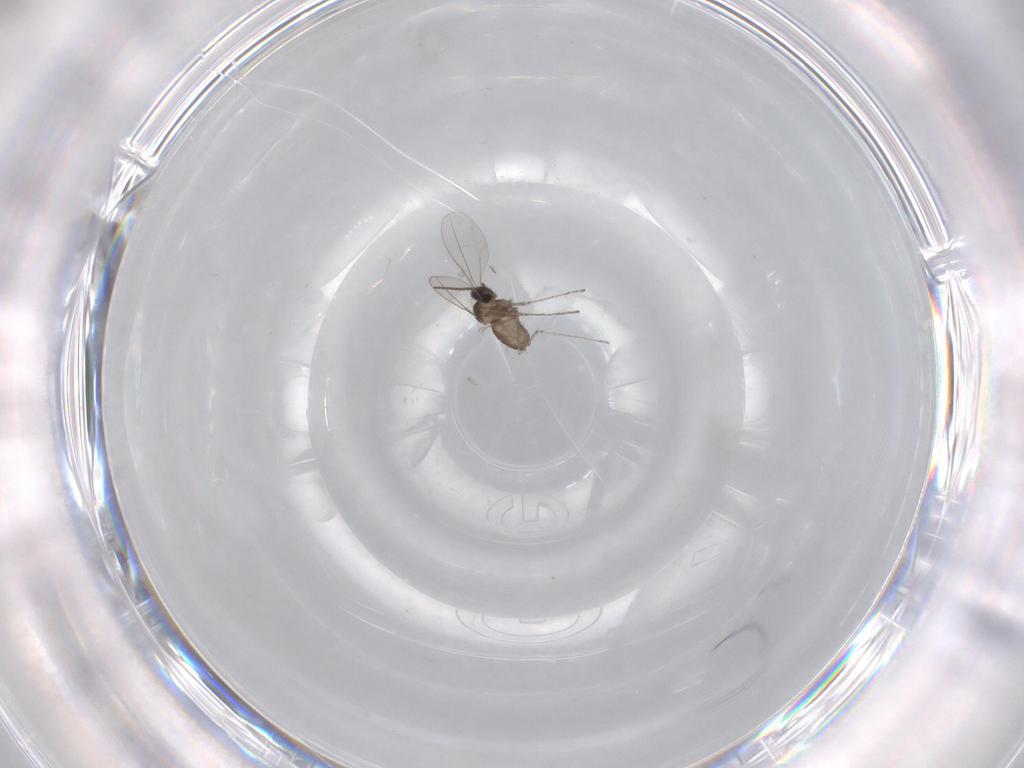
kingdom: Animalia
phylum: Arthropoda
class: Insecta
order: Diptera
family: Cecidomyiidae
